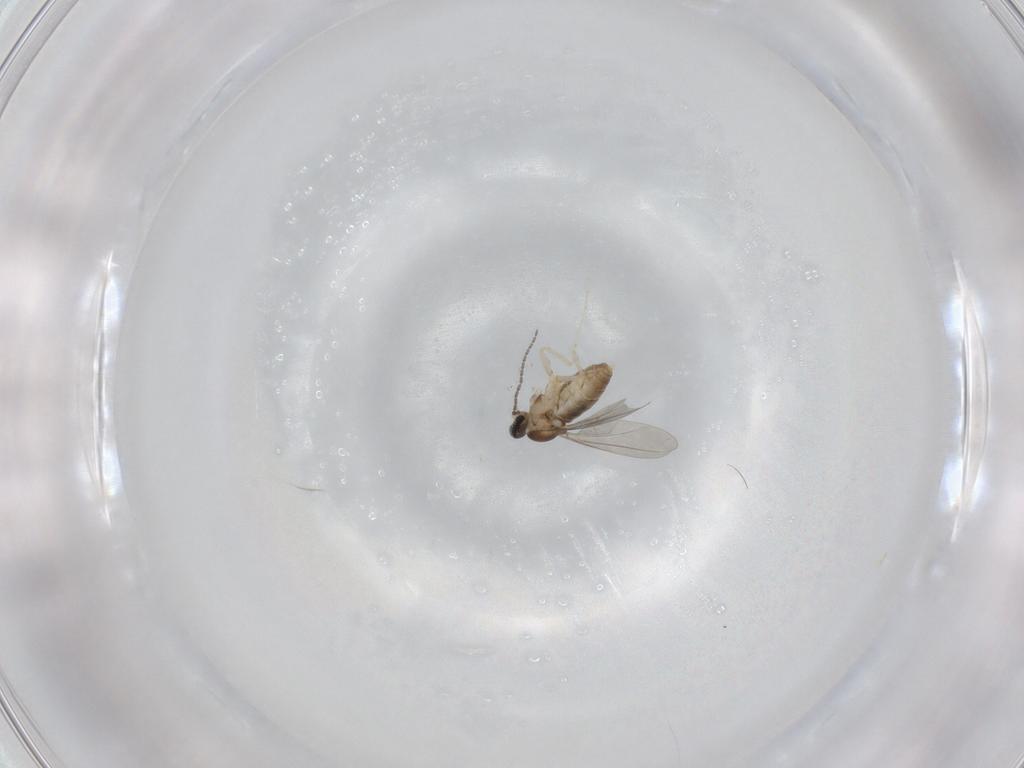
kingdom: Animalia
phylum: Arthropoda
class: Insecta
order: Diptera
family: Cecidomyiidae
